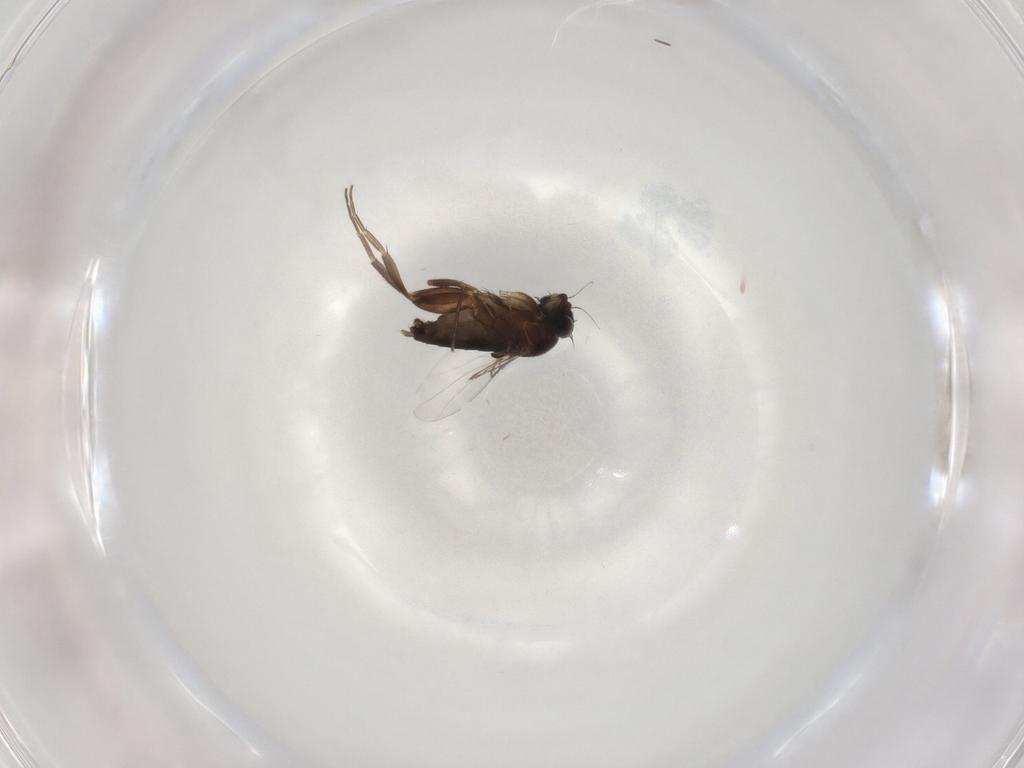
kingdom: Animalia
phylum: Arthropoda
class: Insecta
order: Diptera
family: Phoridae
